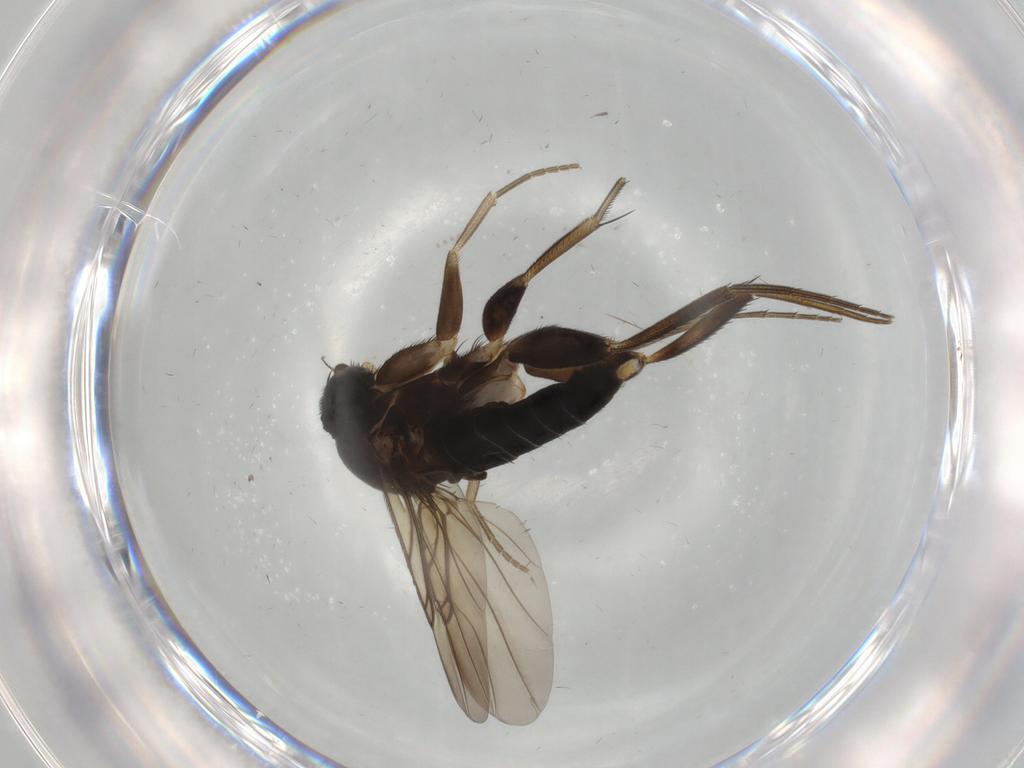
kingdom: Animalia
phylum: Arthropoda
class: Insecta
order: Diptera
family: Phoridae
